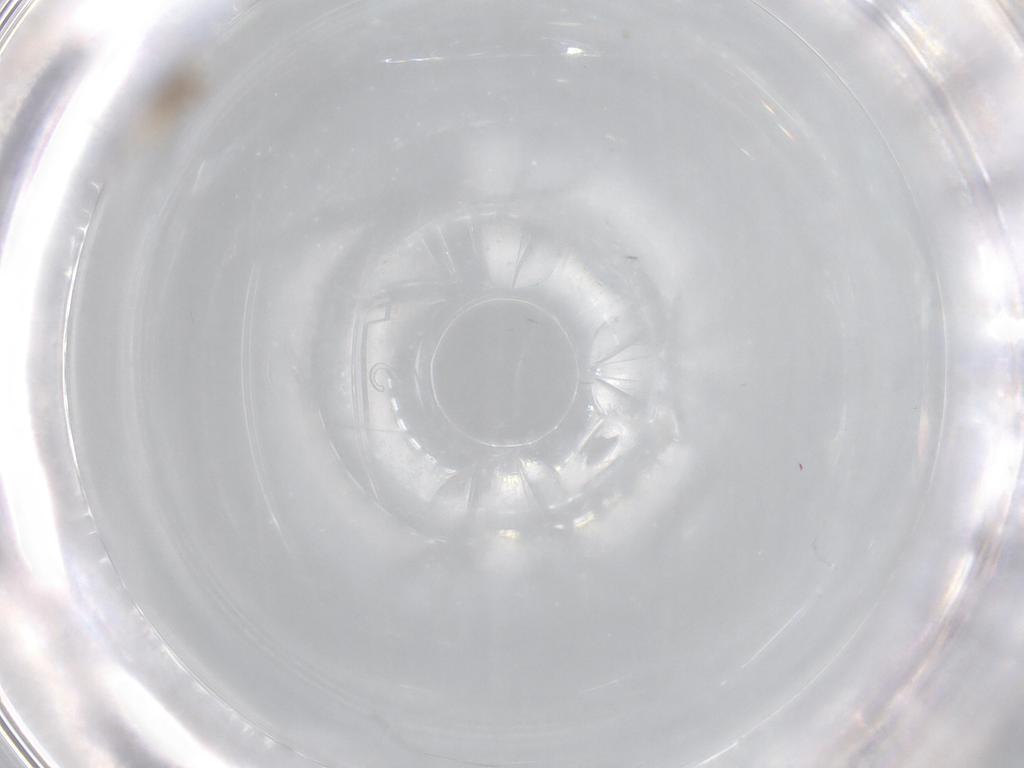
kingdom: Animalia
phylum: Arthropoda
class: Insecta
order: Diptera
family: Chironomidae
